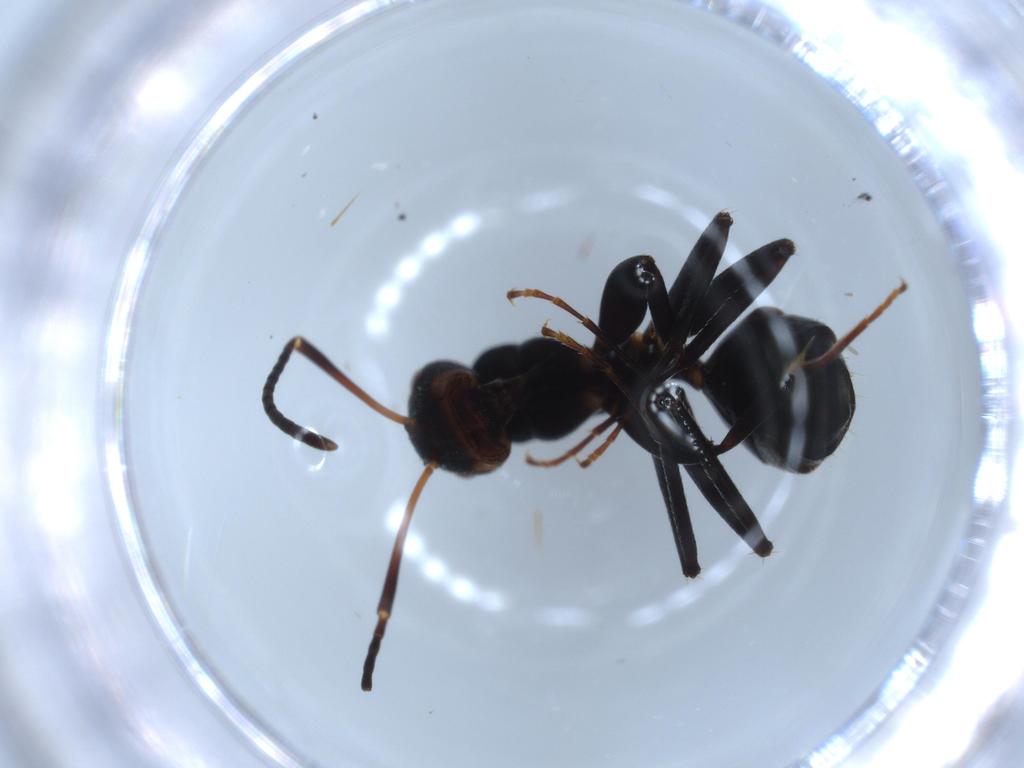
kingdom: Animalia
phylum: Arthropoda
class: Insecta
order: Hymenoptera
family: Formicidae
